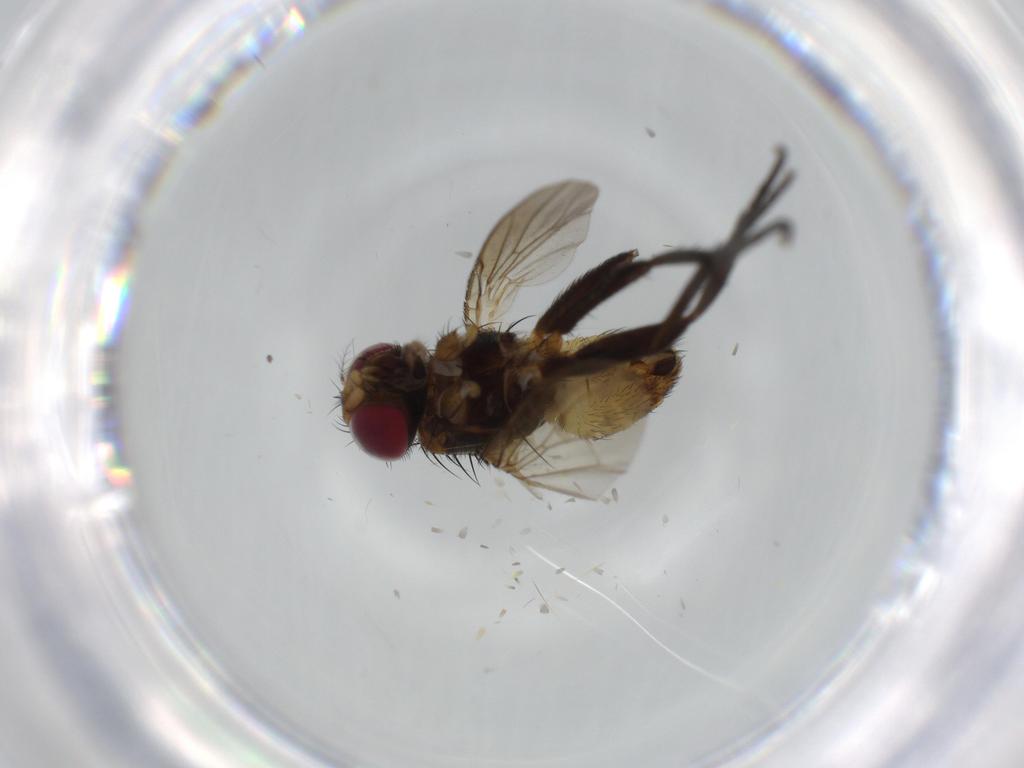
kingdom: Animalia
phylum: Arthropoda
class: Insecta
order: Diptera
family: Anthomyiidae
